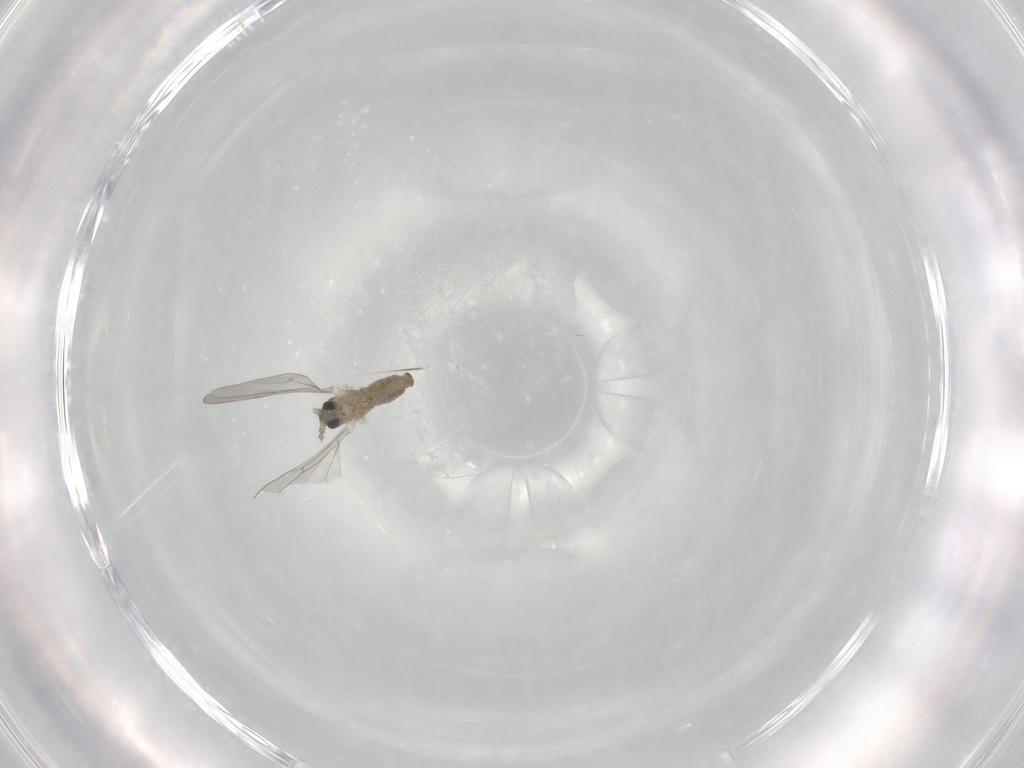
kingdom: Animalia
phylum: Arthropoda
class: Insecta
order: Diptera
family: Cecidomyiidae
